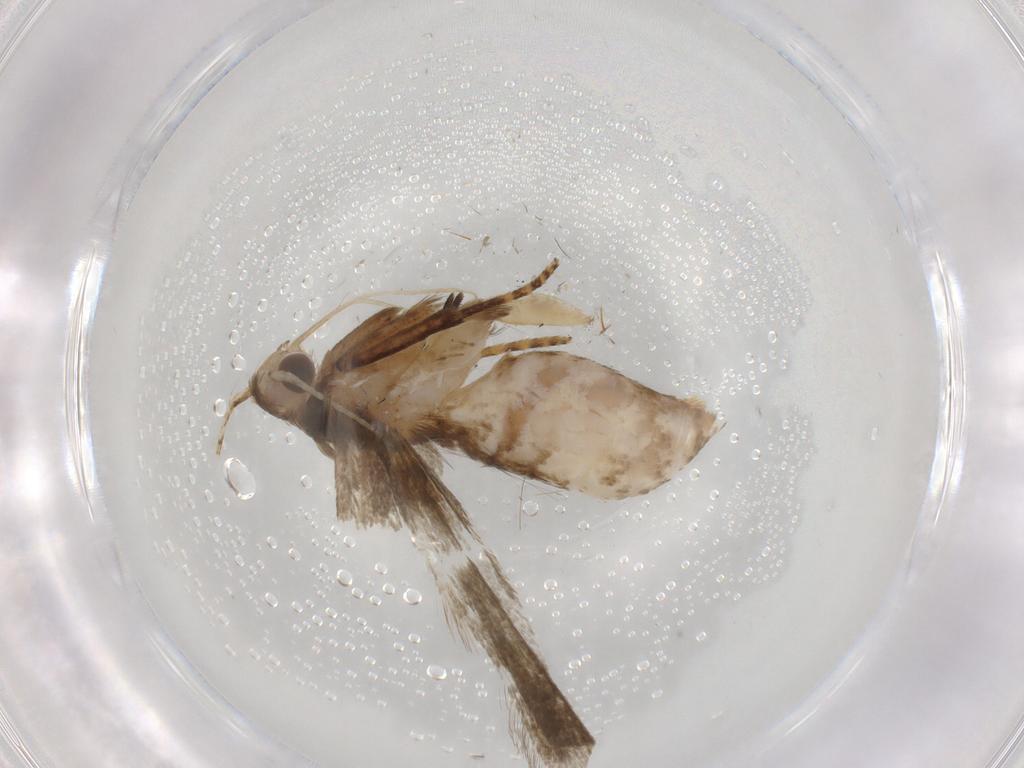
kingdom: Animalia
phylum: Arthropoda
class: Insecta
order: Lepidoptera
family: Gelechiidae
